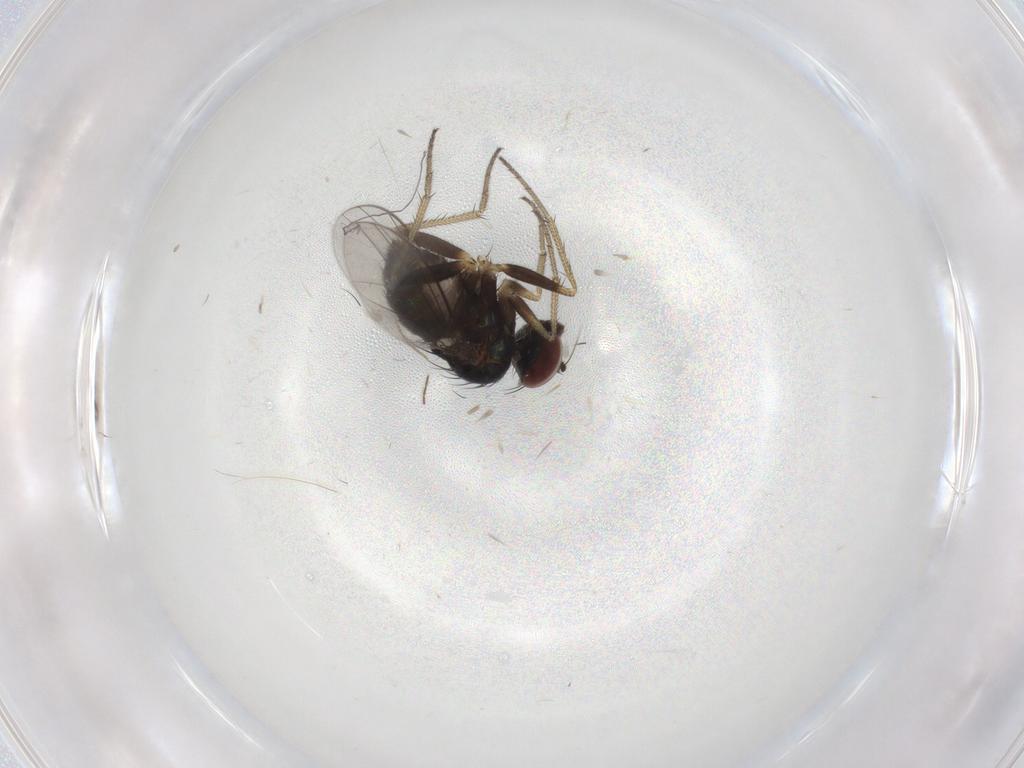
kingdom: Animalia
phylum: Arthropoda
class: Insecta
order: Diptera
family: Dolichopodidae
